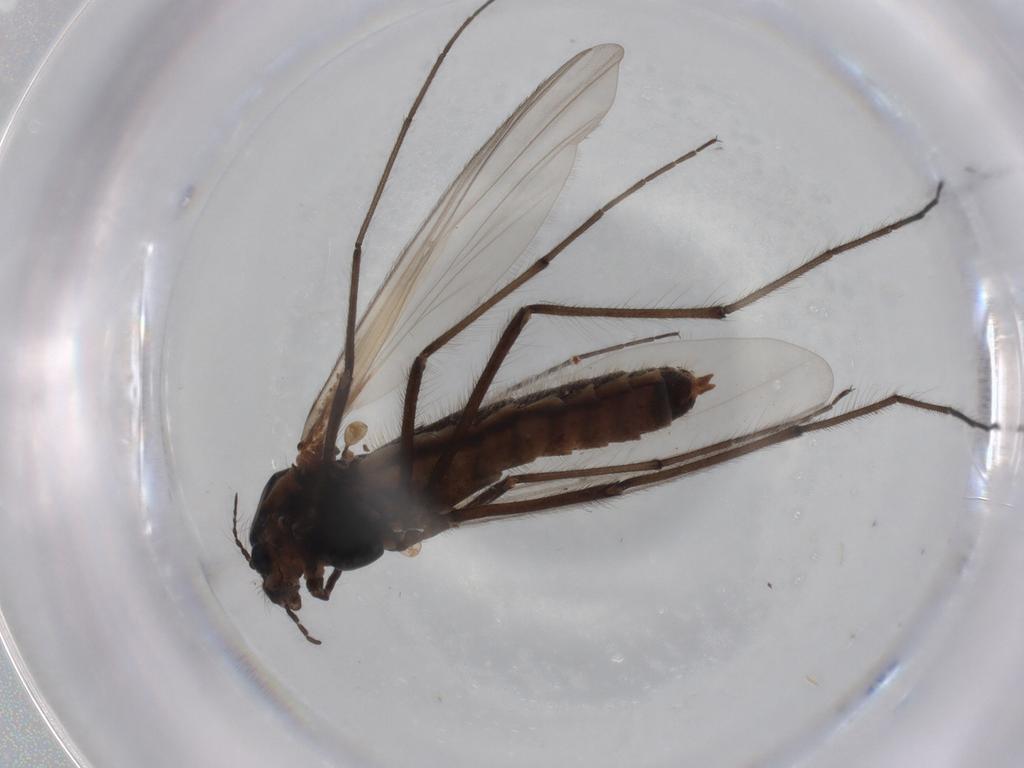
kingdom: Animalia
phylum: Arthropoda
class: Insecta
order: Diptera
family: Chironomidae
